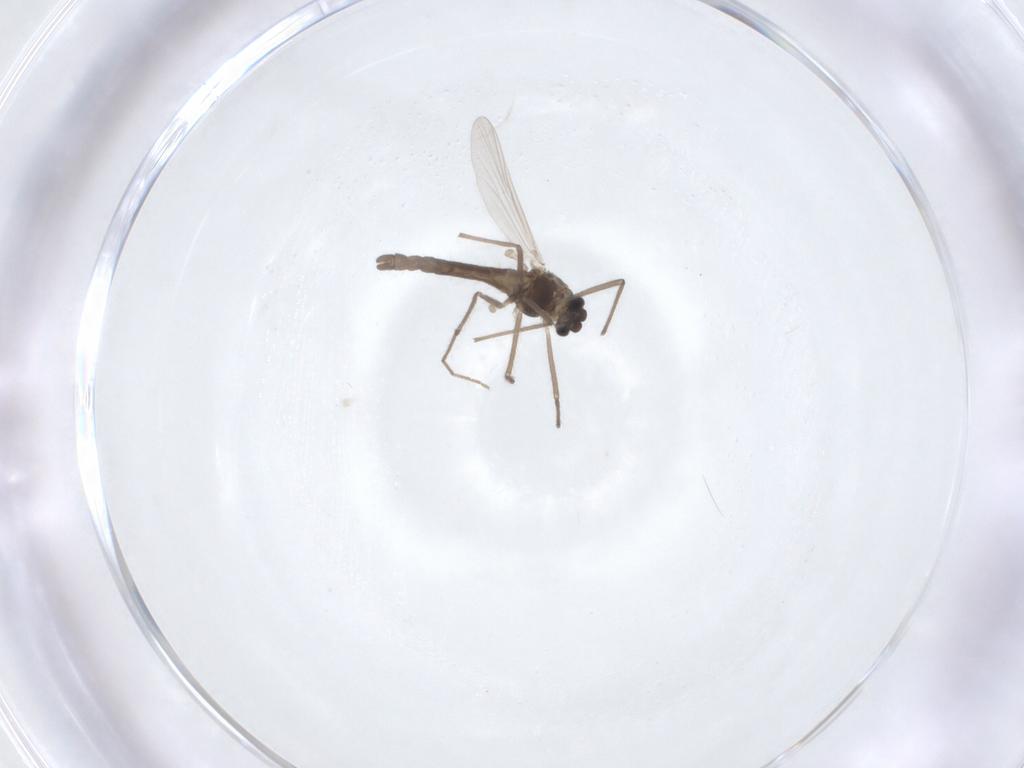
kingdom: Animalia
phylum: Arthropoda
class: Insecta
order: Diptera
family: Chironomidae
